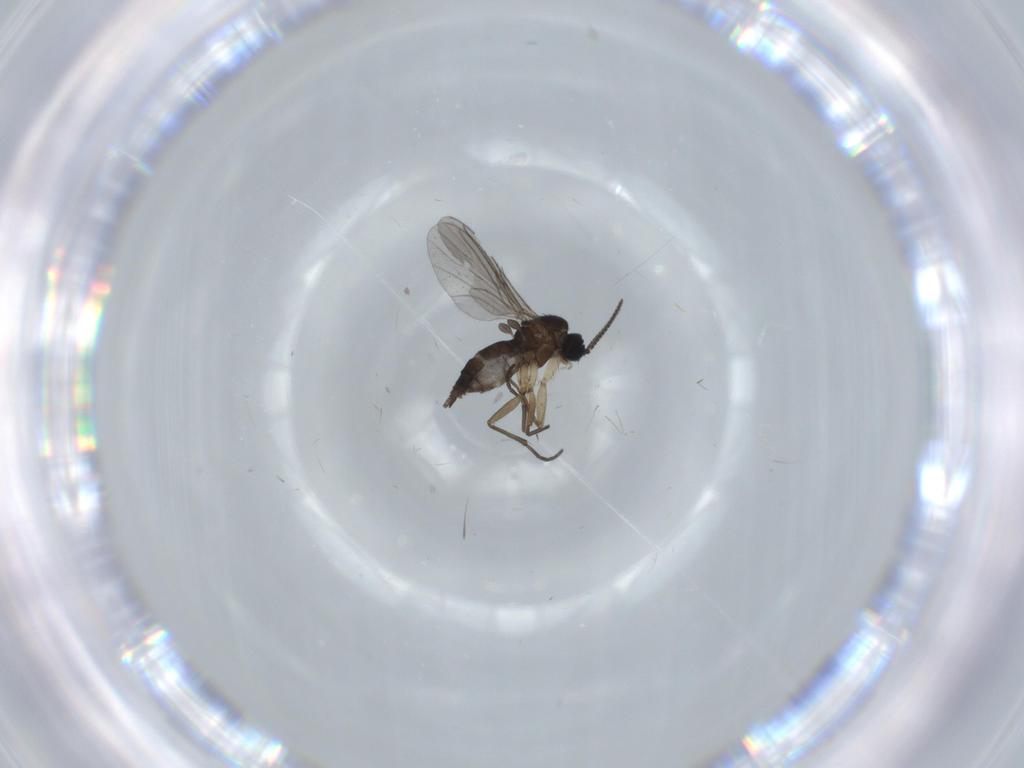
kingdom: Animalia
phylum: Arthropoda
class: Insecta
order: Diptera
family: Sciaridae
